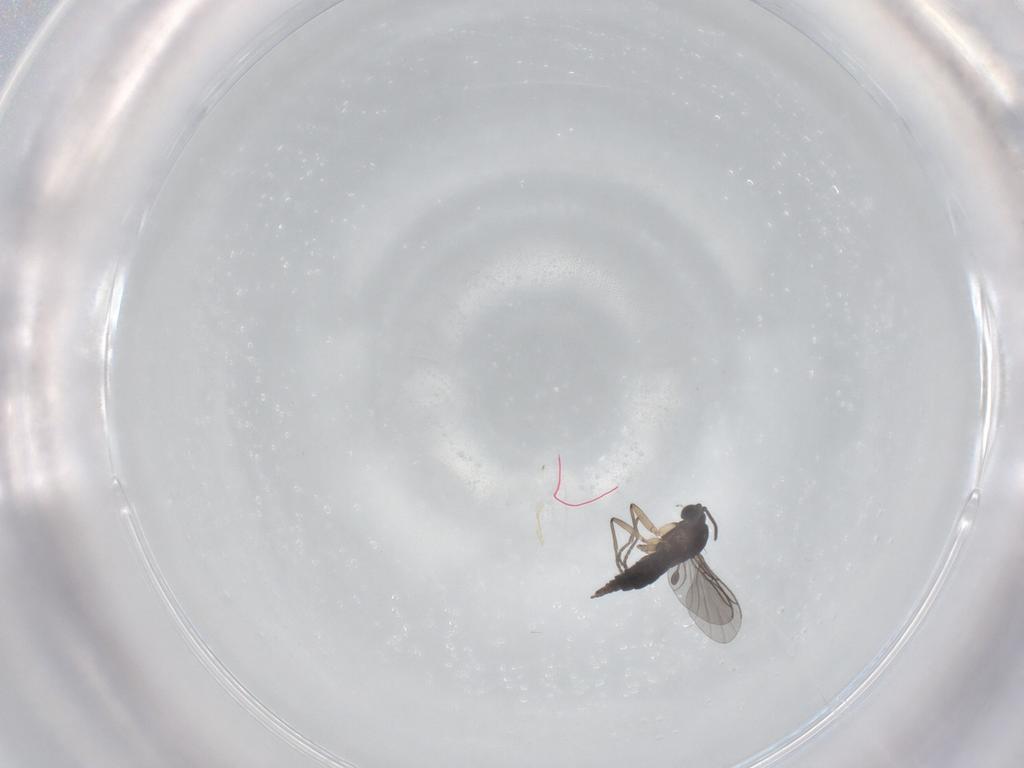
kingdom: Animalia
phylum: Arthropoda
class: Insecta
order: Diptera
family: Sciaridae
